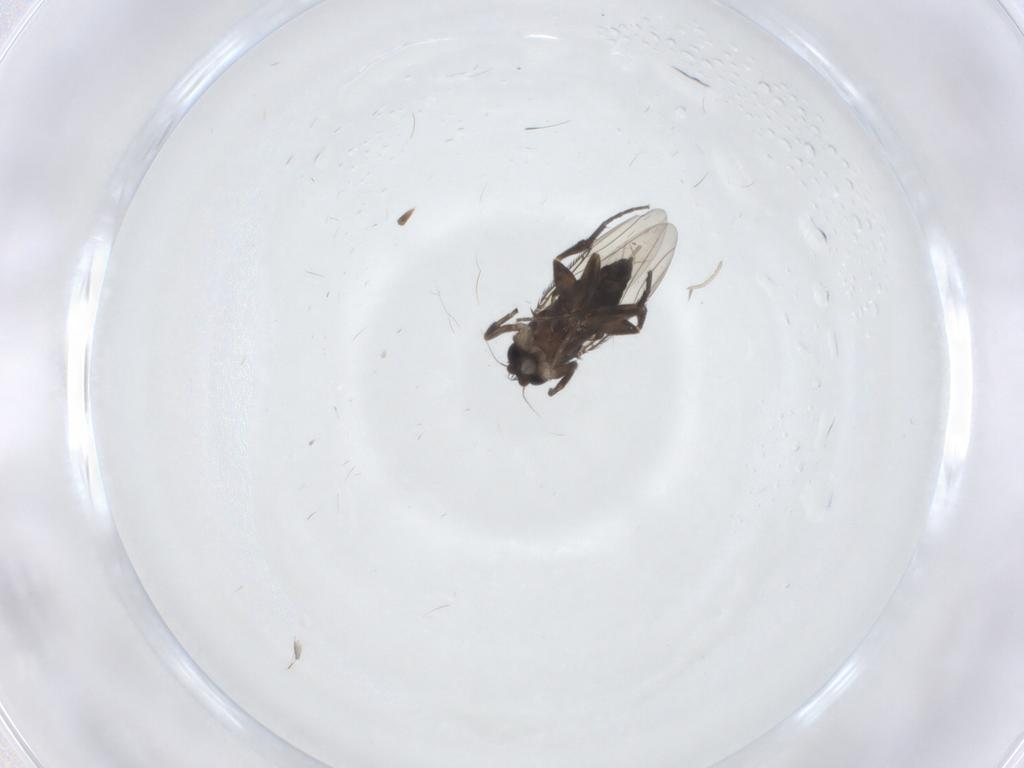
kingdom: Animalia
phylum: Arthropoda
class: Insecta
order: Diptera
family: Phoridae
